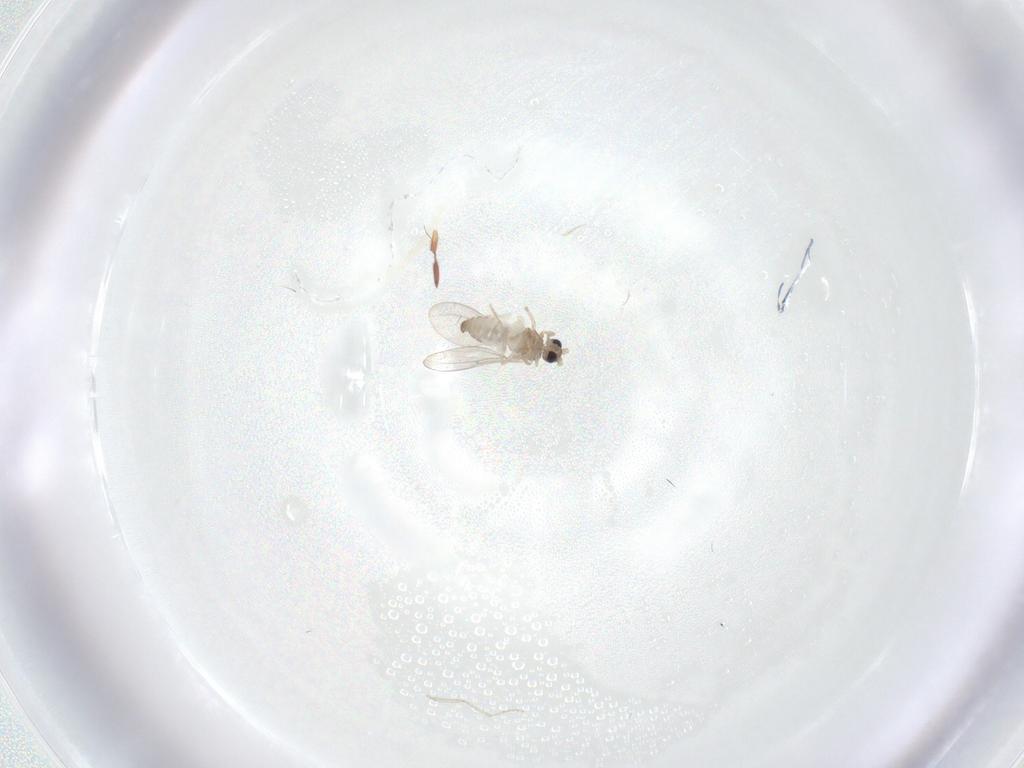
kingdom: Animalia
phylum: Arthropoda
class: Insecta
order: Diptera
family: Cecidomyiidae
